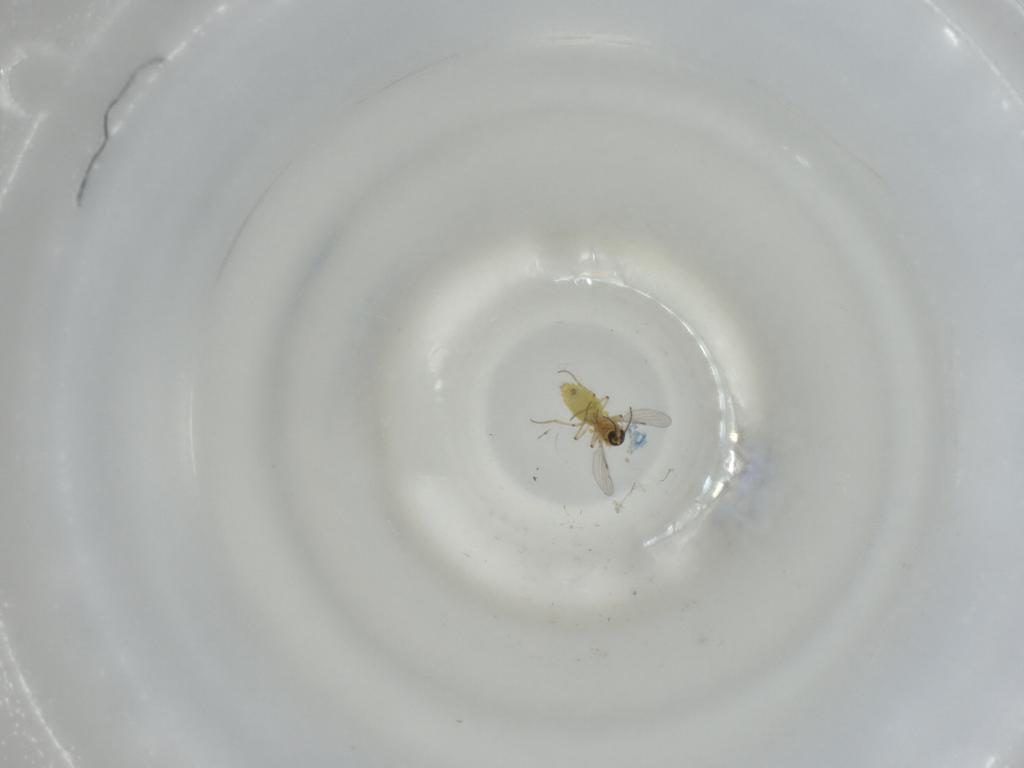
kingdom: Animalia
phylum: Arthropoda
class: Insecta
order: Diptera
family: Ceratopogonidae
